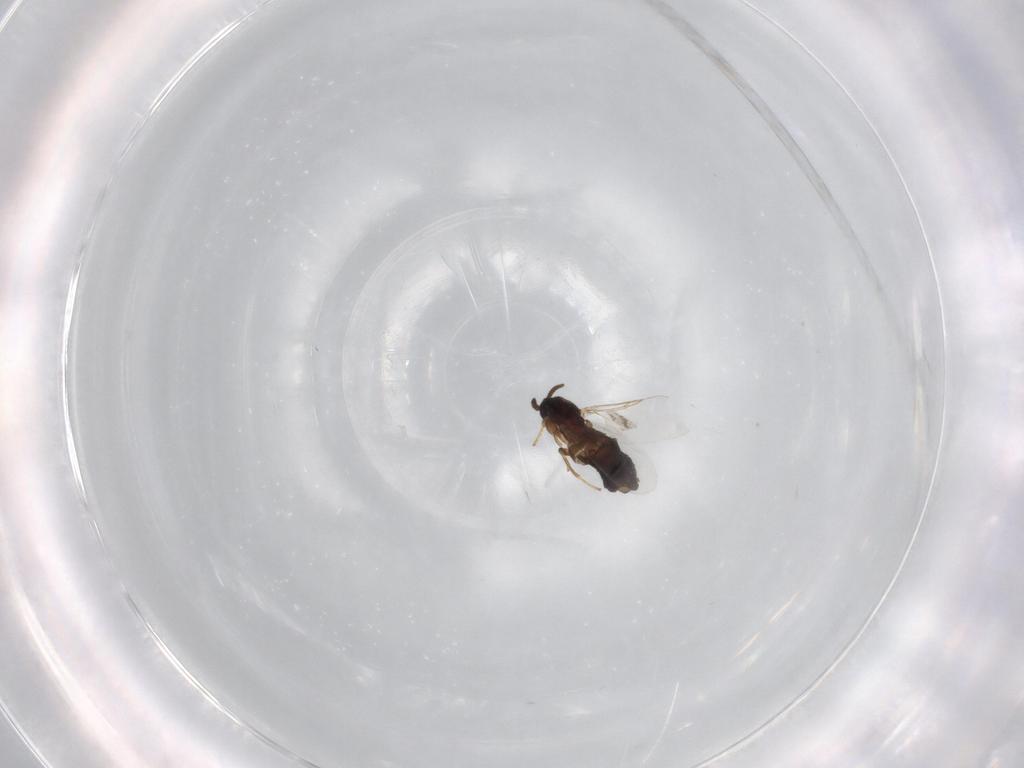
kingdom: Animalia
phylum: Arthropoda
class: Insecta
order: Diptera
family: Scatopsidae
